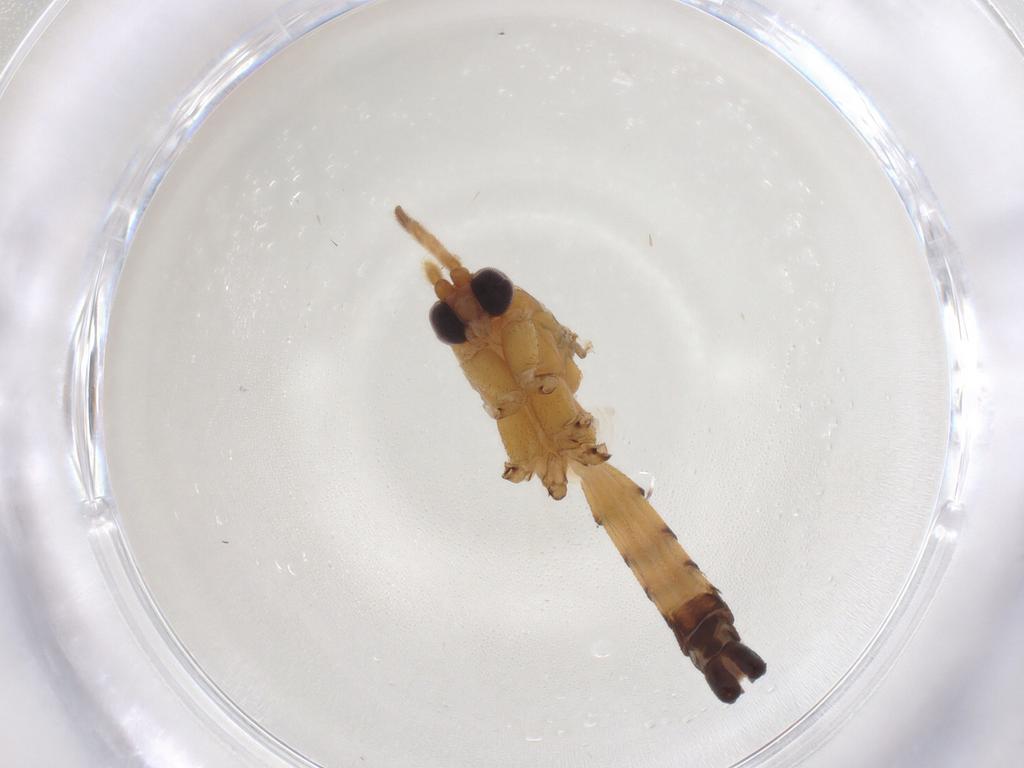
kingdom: Animalia
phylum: Arthropoda
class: Insecta
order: Diptera
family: Mycetophilidae
